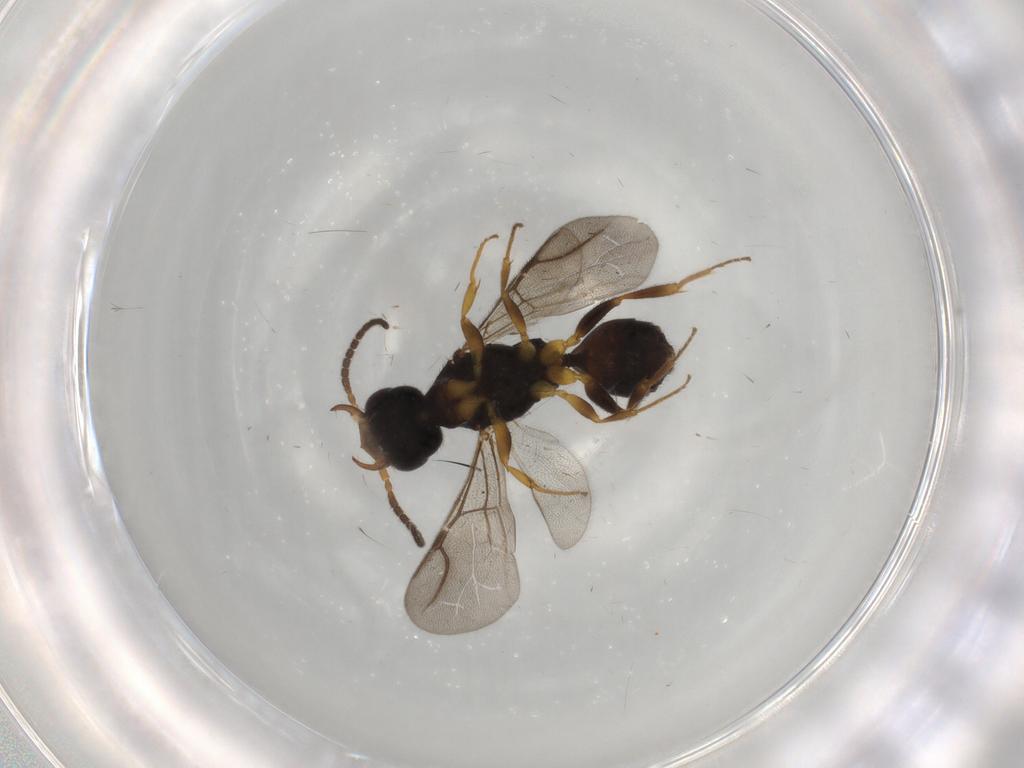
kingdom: Animalia
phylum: Arthropoda
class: Insecta
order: Hymenoptera
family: Bethylidae
